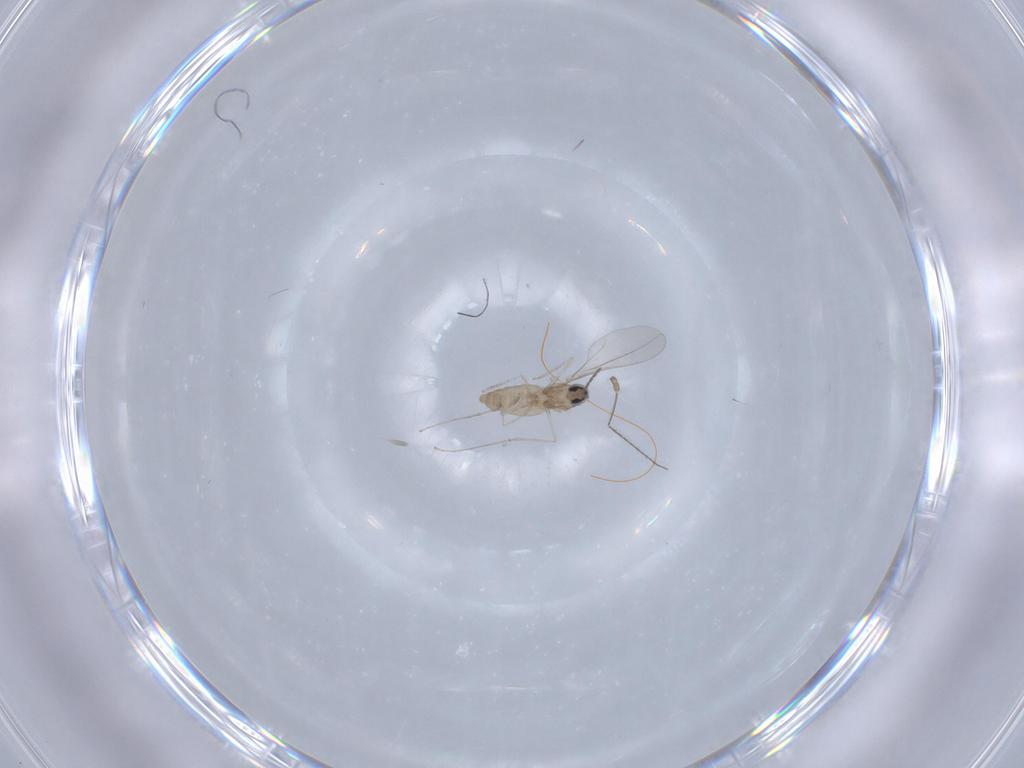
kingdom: Animalia
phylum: Arthropoda
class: Insecta
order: Diptera
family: Cecidomyiidae
